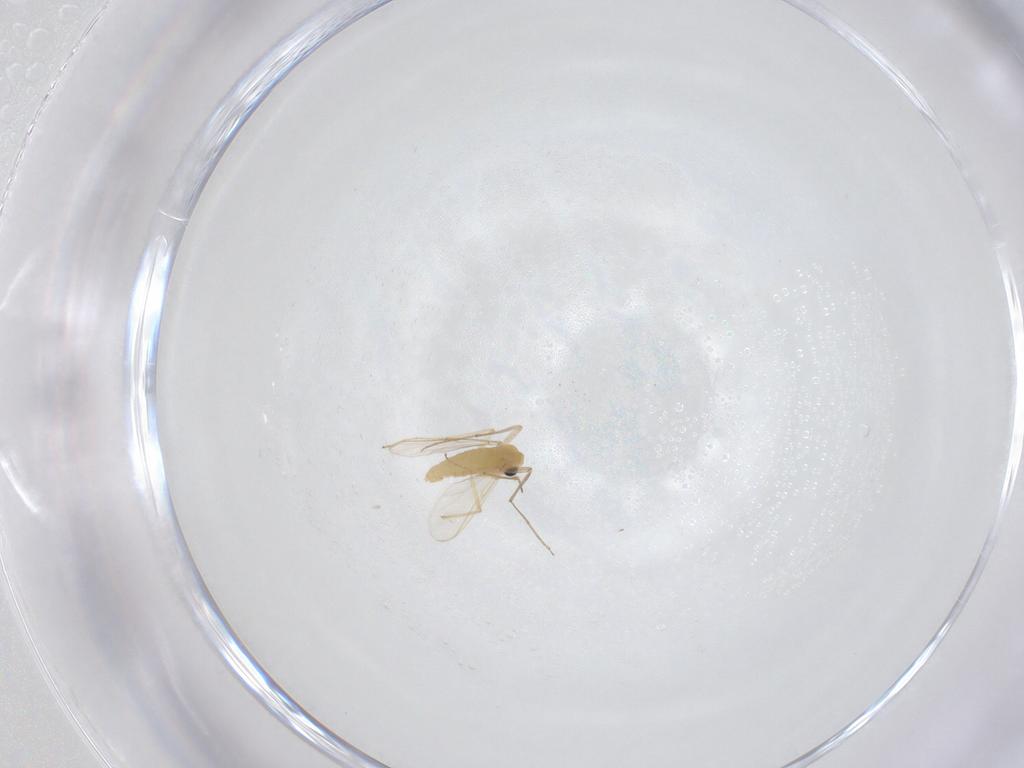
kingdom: Animalia
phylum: Arthropoda
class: Insecta
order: Diptera
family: Chironomidae
